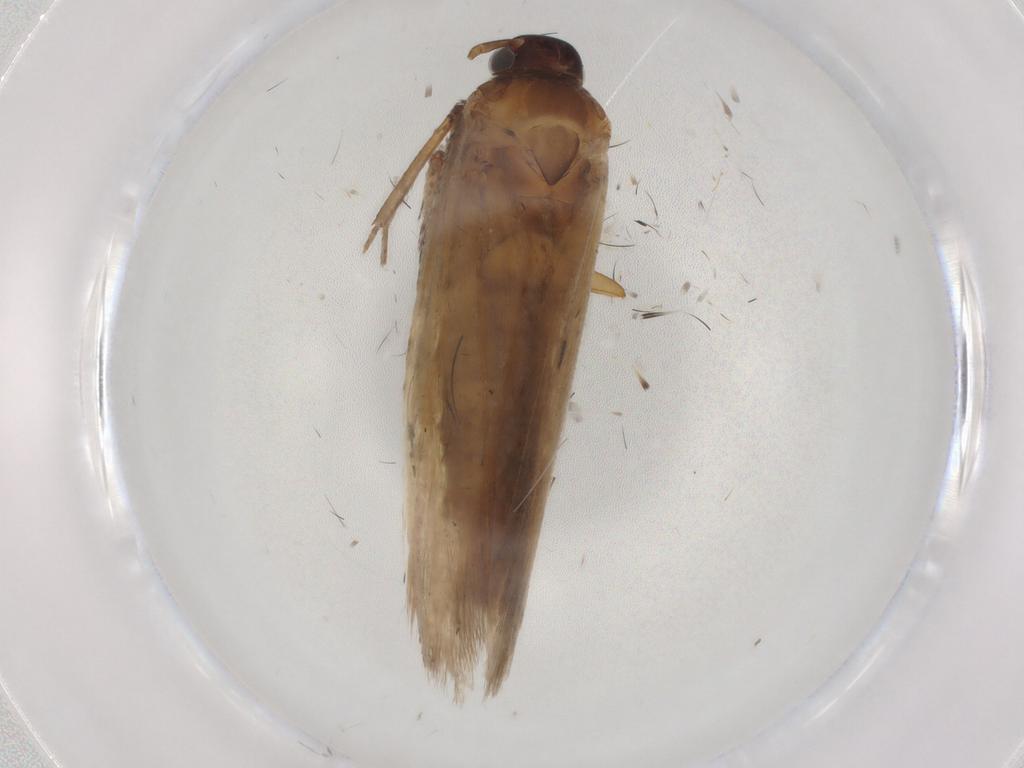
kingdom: Animalia
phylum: Arthropoda
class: Insecta
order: Lepidoptera
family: Gelechiidae
